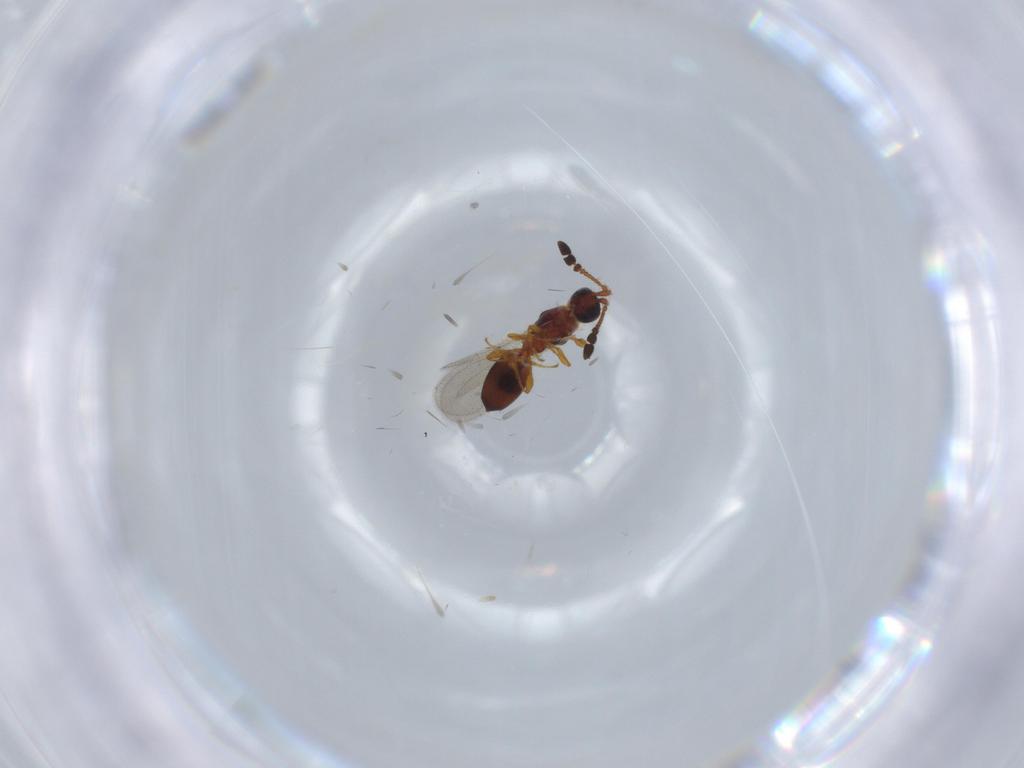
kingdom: Animalia
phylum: Arthropoda
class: Insecta
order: Hymenoptera
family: Diapriidae
